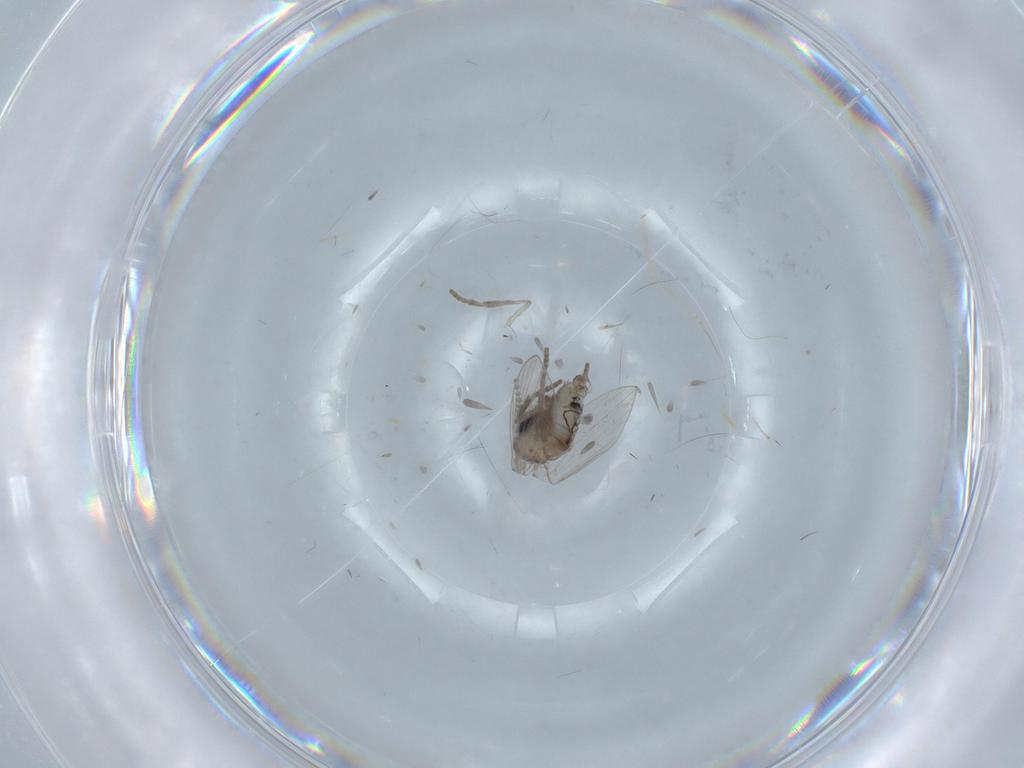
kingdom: Animalia
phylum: Arthropoda
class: Insecta
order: Diptera
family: Psychodidae
